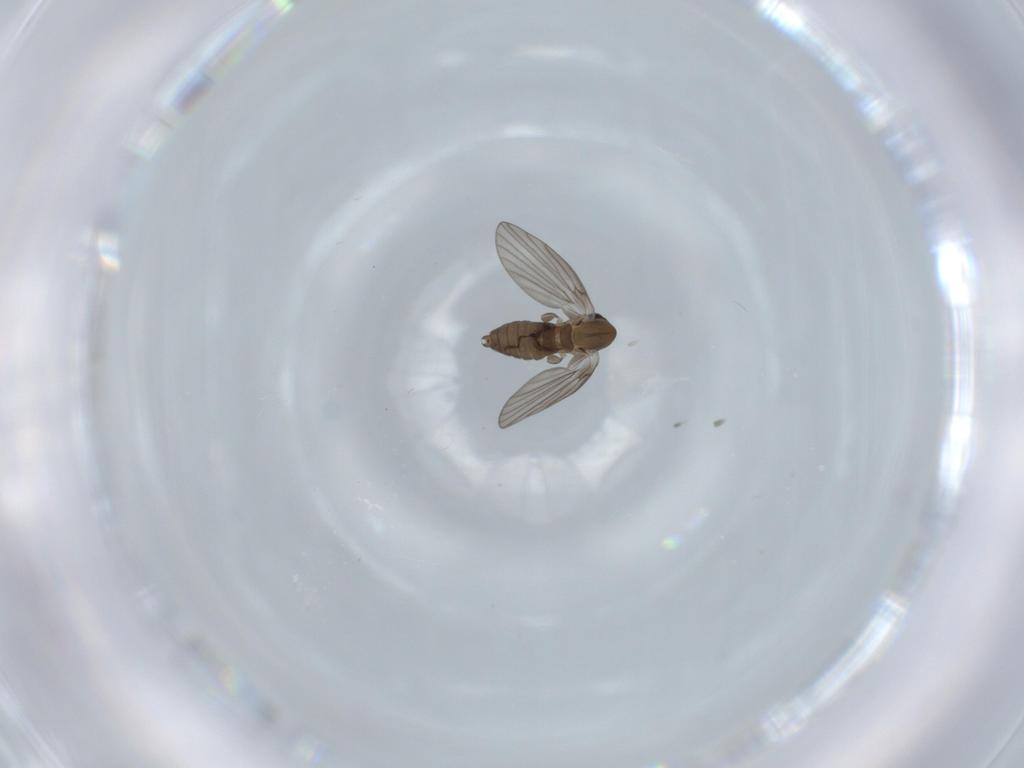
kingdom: Animalia
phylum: Arthropoda
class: Insecta
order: Diptera
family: Psychodidae
